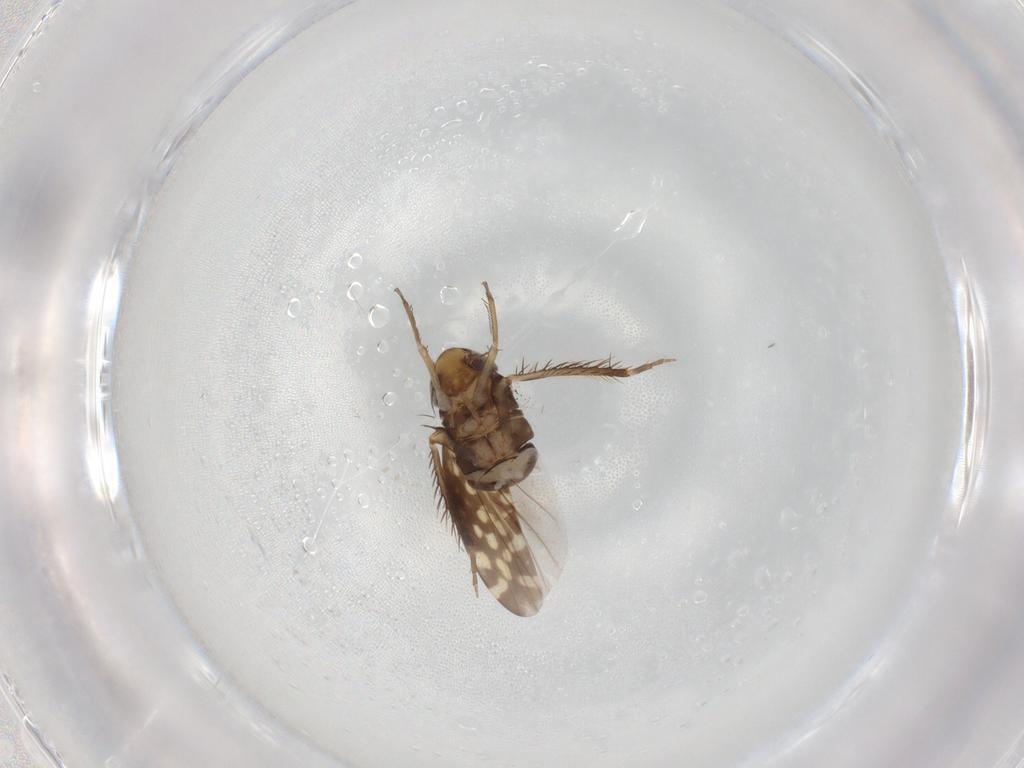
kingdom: Animalia
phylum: Arthropoda
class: Insecta
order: Hemiptera
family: Cicadellidae
